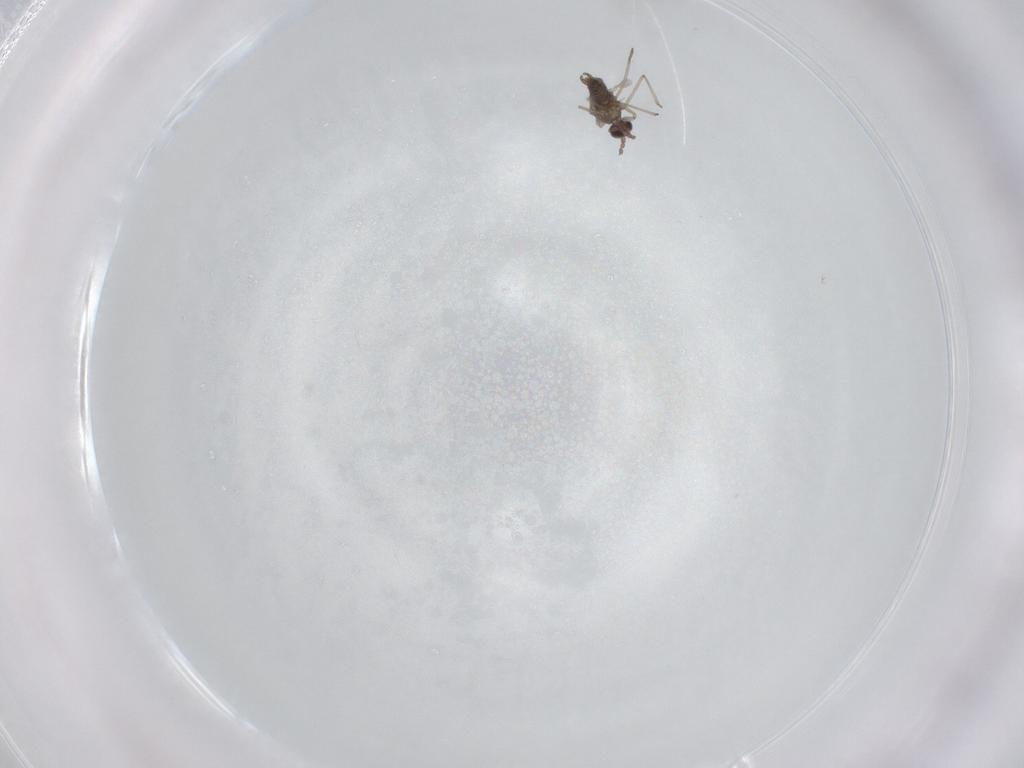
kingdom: Animalia
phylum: Arthropoda
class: Insecta
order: Diptera
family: Cecidomyiidae
